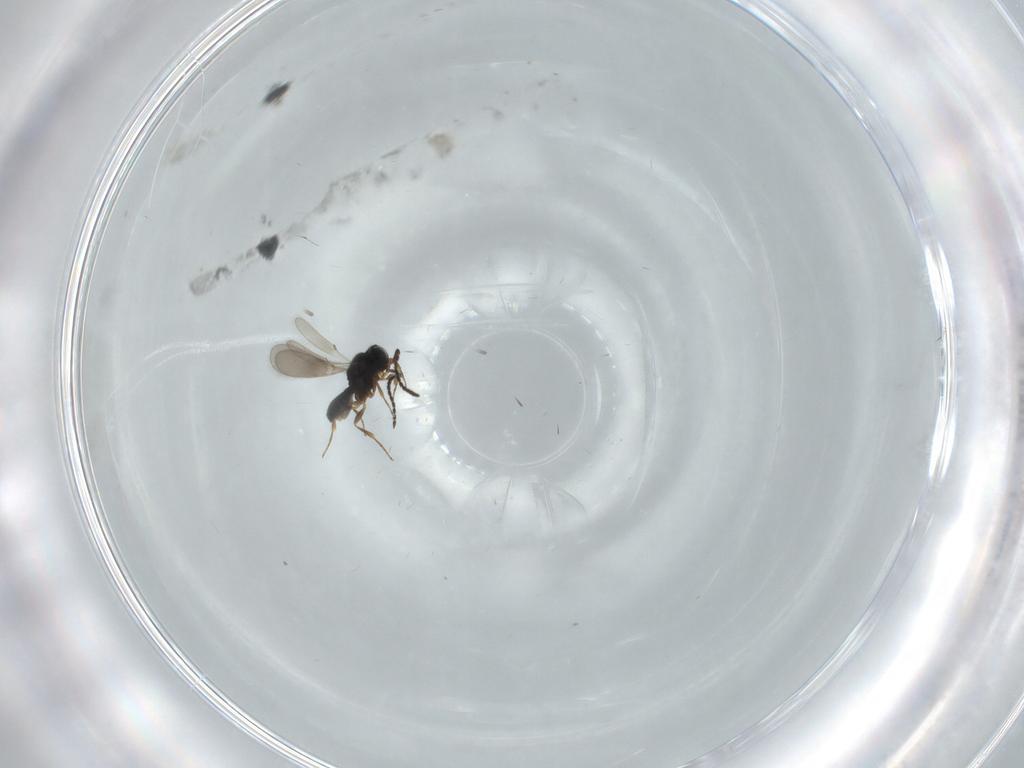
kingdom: Animalia
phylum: Arthropoda
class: Insecta
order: Hymenoptera
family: Scelionidae
